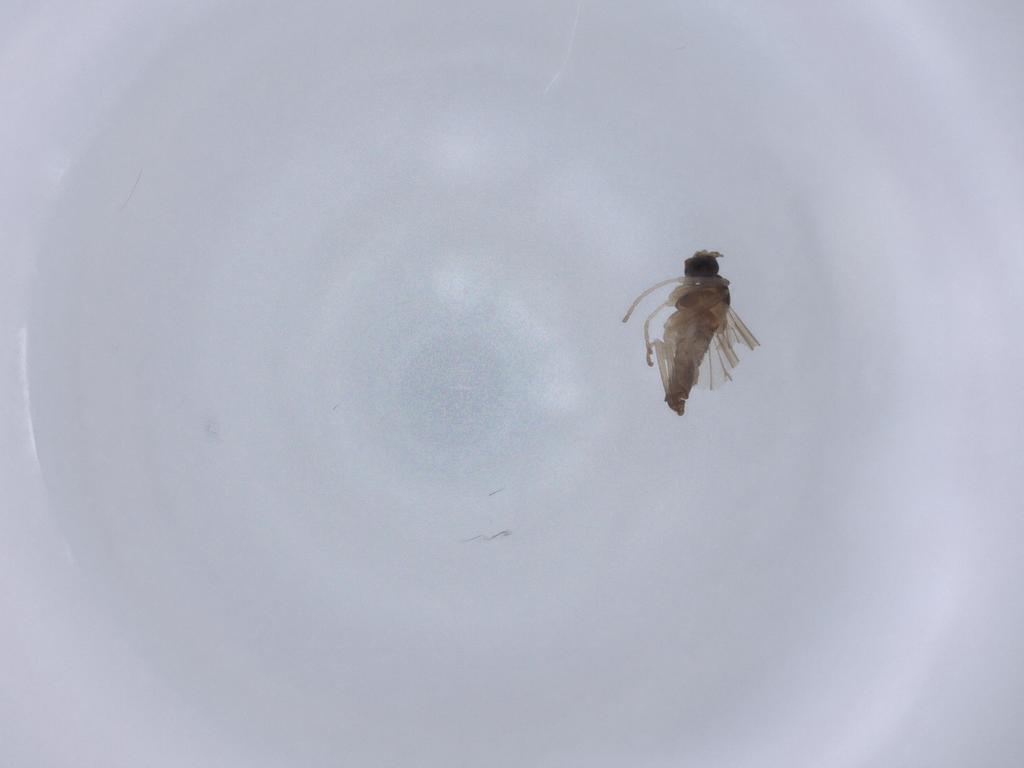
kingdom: Animalia
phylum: Arthropoda
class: Insecta
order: Diptera
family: Cecidomyiidae
